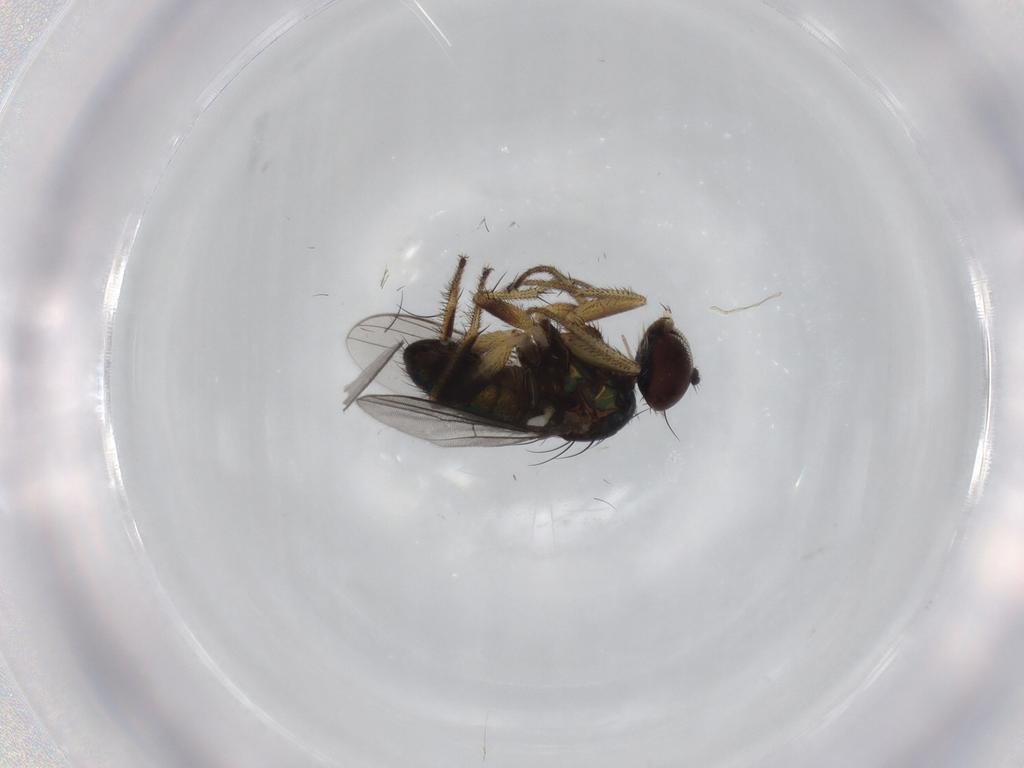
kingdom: Animalia
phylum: Arthropoda
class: Insecta
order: Diptera
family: Dolichopodidae
